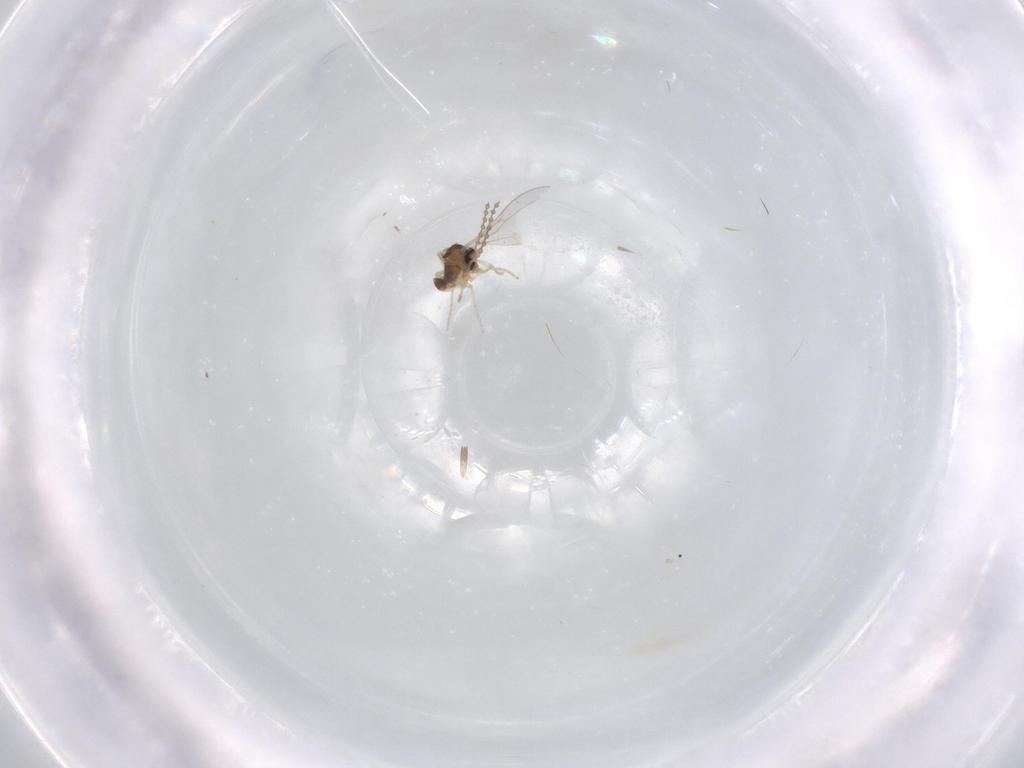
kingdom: Animalia
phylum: Arthropoda
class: Insecta
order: Diptera
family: Cecidomyiidae
